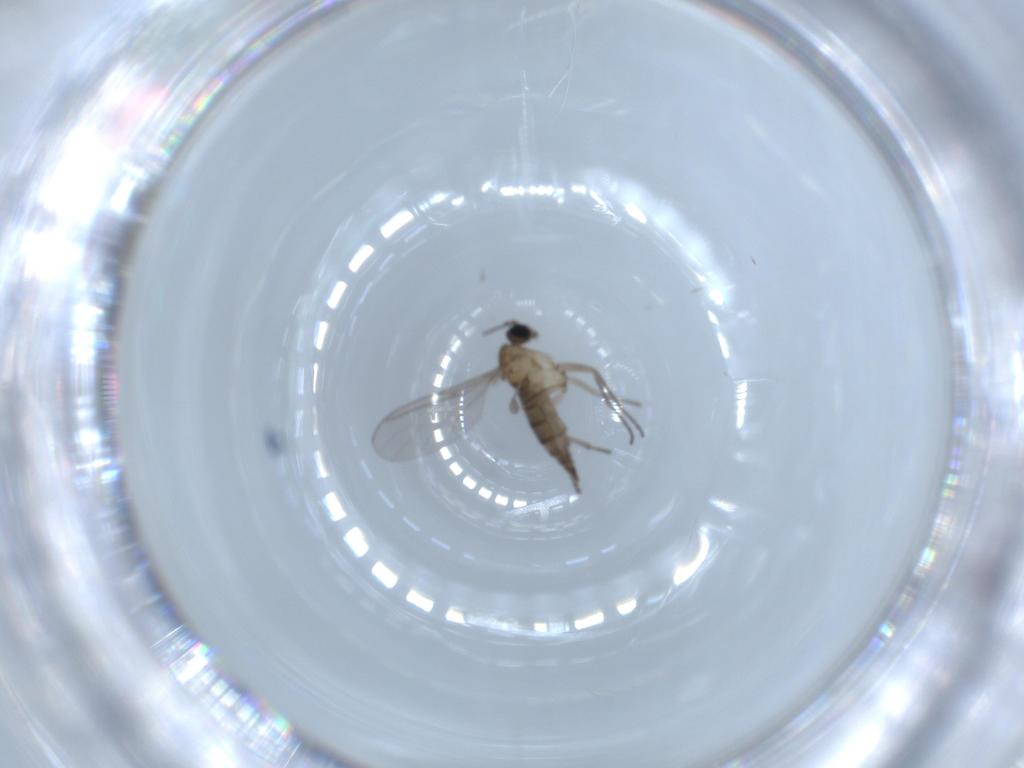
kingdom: Animalia
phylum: Arthropoda
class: Insecta
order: Diptera
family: Sciaridae
